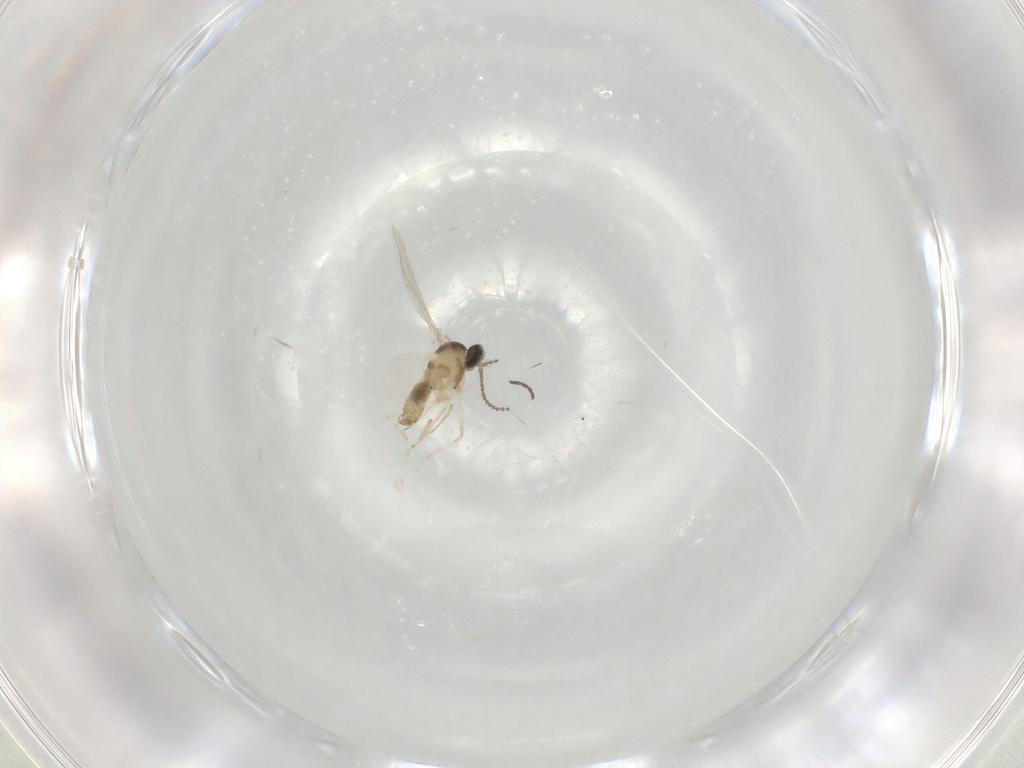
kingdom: Animalia
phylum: Arthropoda
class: Insecta
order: Diptera
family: Cecidomyiidae
